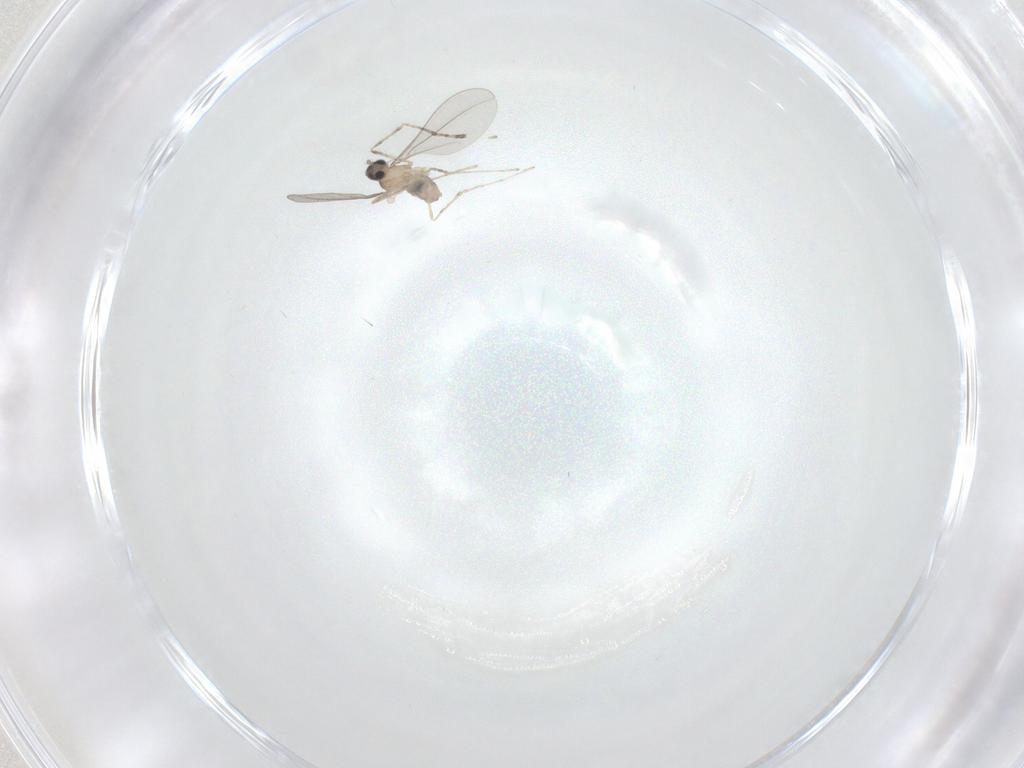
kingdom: Animalia
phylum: Arthropoda
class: Insecta
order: Diptera
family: Cecidomyiidae
